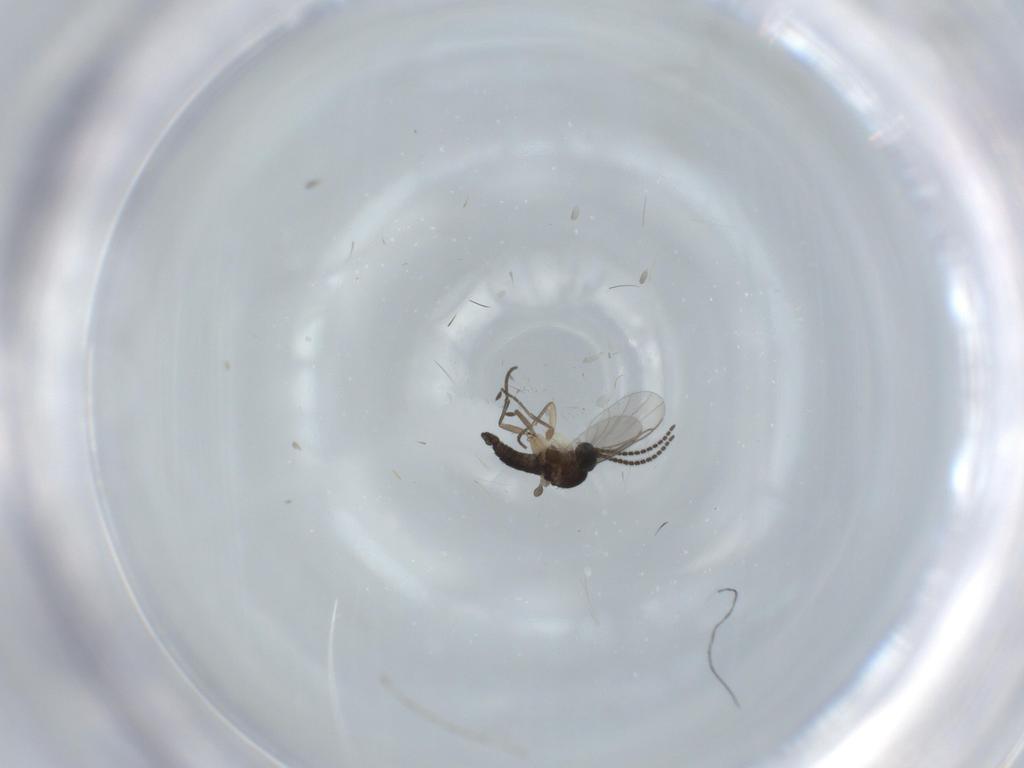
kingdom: Animalia
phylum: Arthropoda
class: Insecta
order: Diptera
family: Sciaridae
